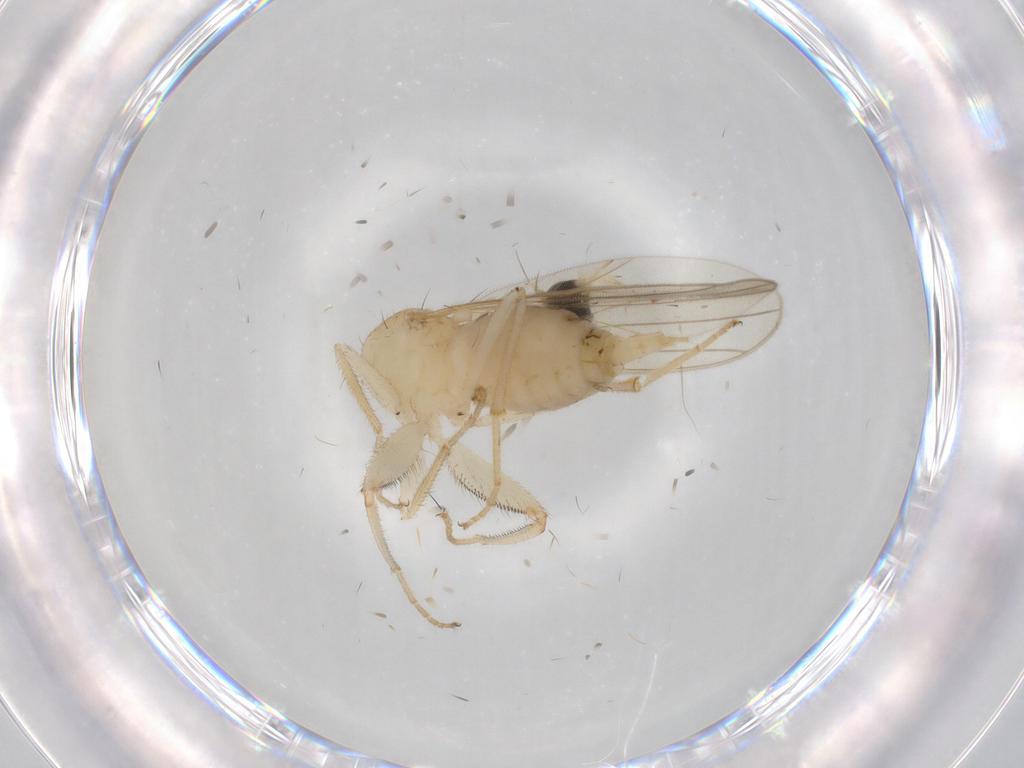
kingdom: Animalia
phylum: Arthropoda
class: Insecta
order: Diptera
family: Hybotidae
